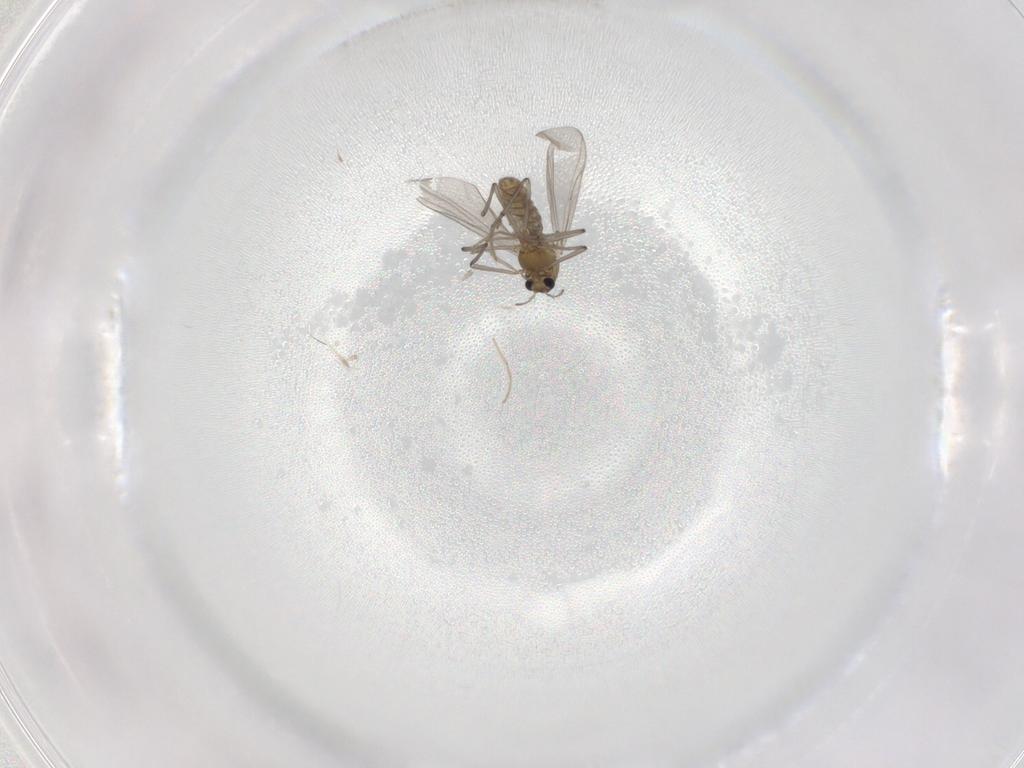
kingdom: Animalia
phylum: Arthropoda
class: Insecta
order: Diptera
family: Chironomidae
